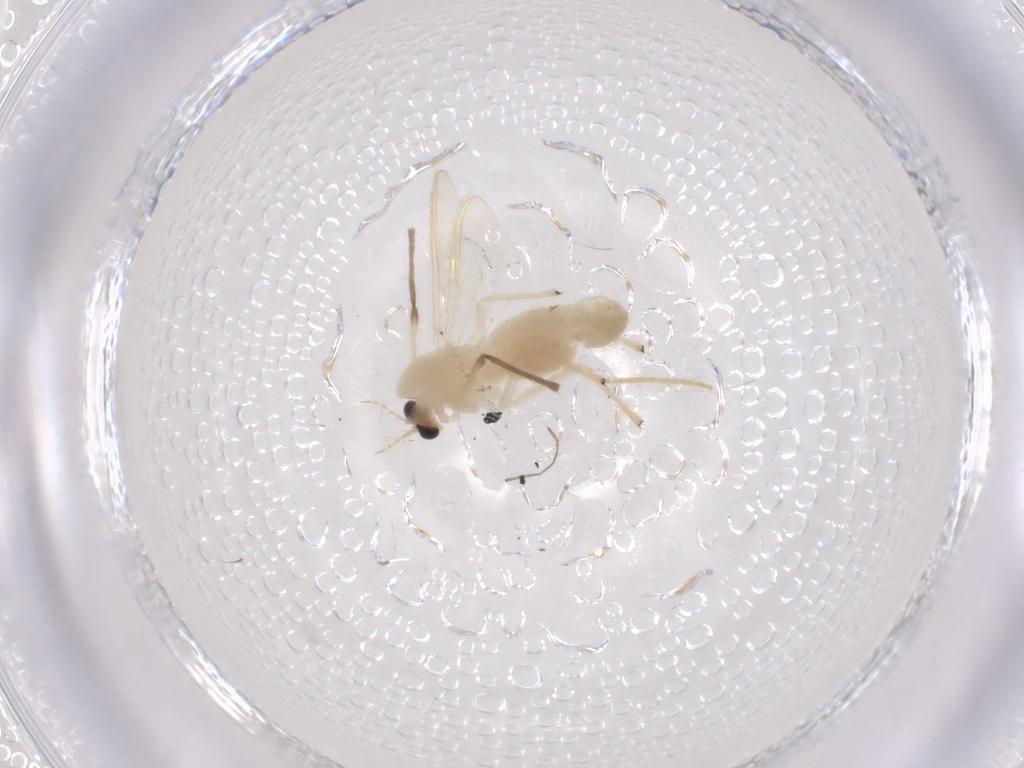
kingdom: Animalia
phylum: Arthropoda
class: Insecta
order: Diptera
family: Chironomidae
